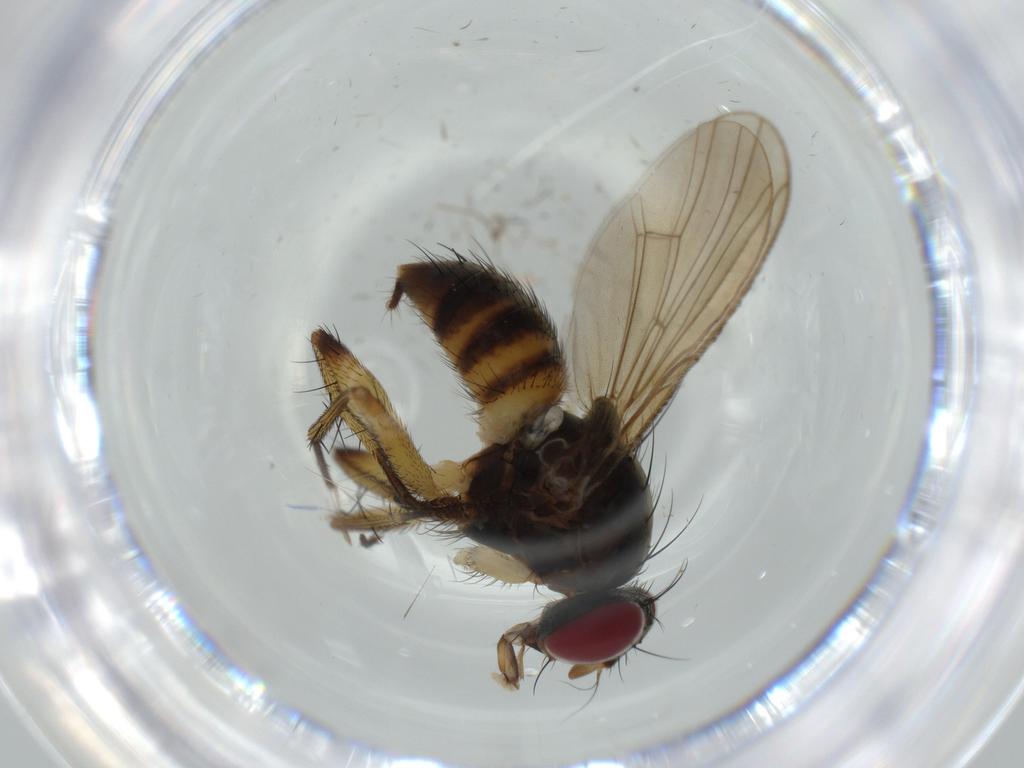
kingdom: Animalia
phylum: Arthropoda
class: Insecta
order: Diptera
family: Muscidae
